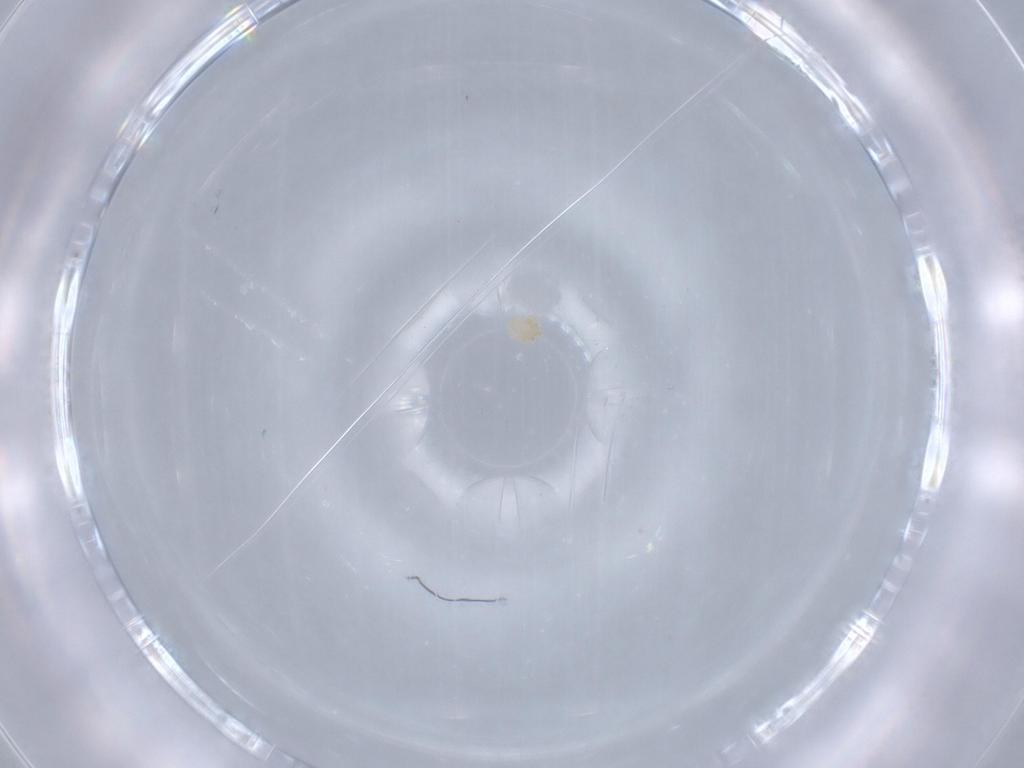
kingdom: Animalia
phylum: Arthropoda
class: Arachnida
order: Trombidiformes
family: Sperchontidae
